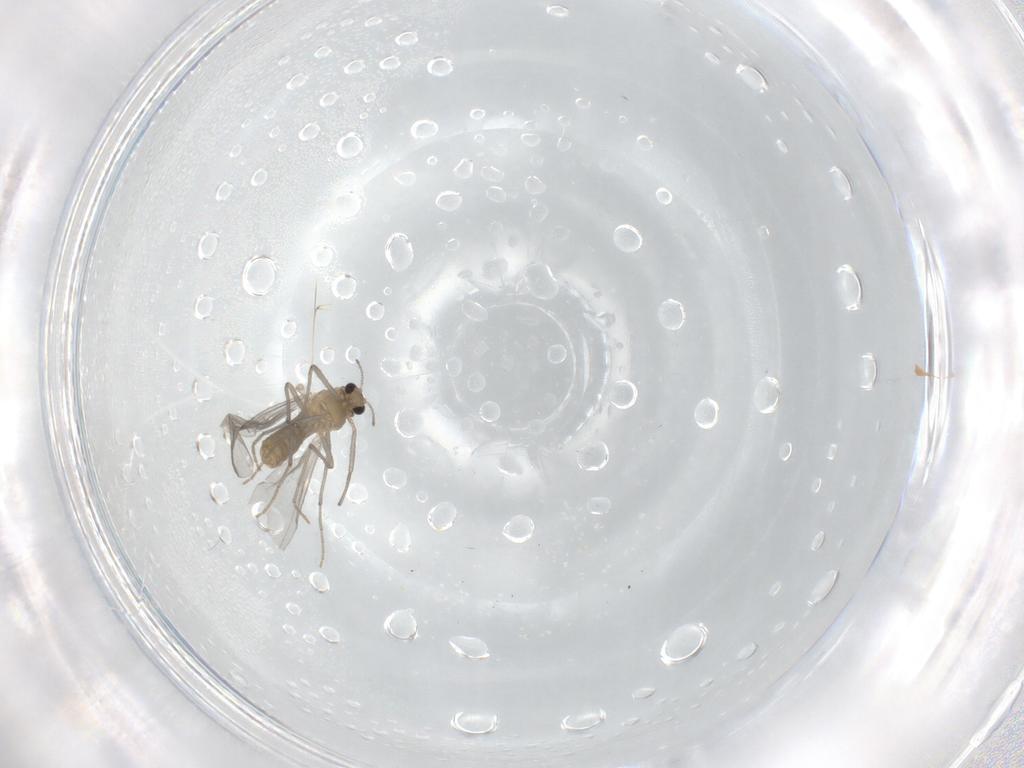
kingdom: Animalia
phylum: Arthropoda
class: Insecta
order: Diptera
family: Chironomidae
